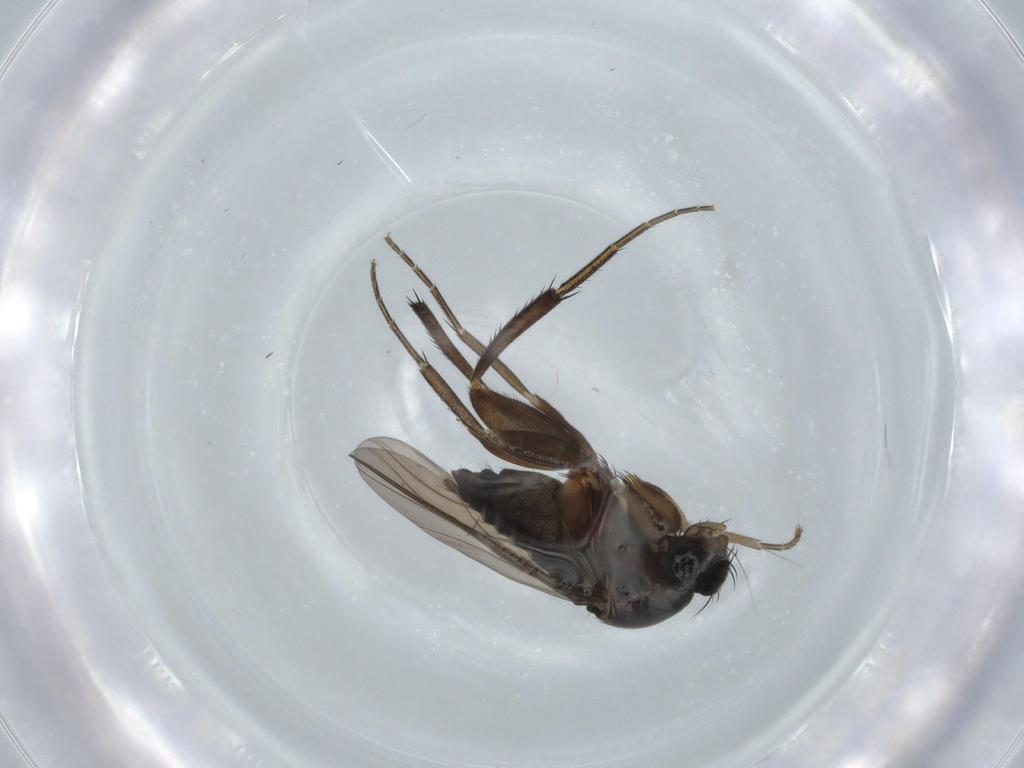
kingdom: Animalia
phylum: Arthropoda
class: Insecta
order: Diptera
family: Phoridae
